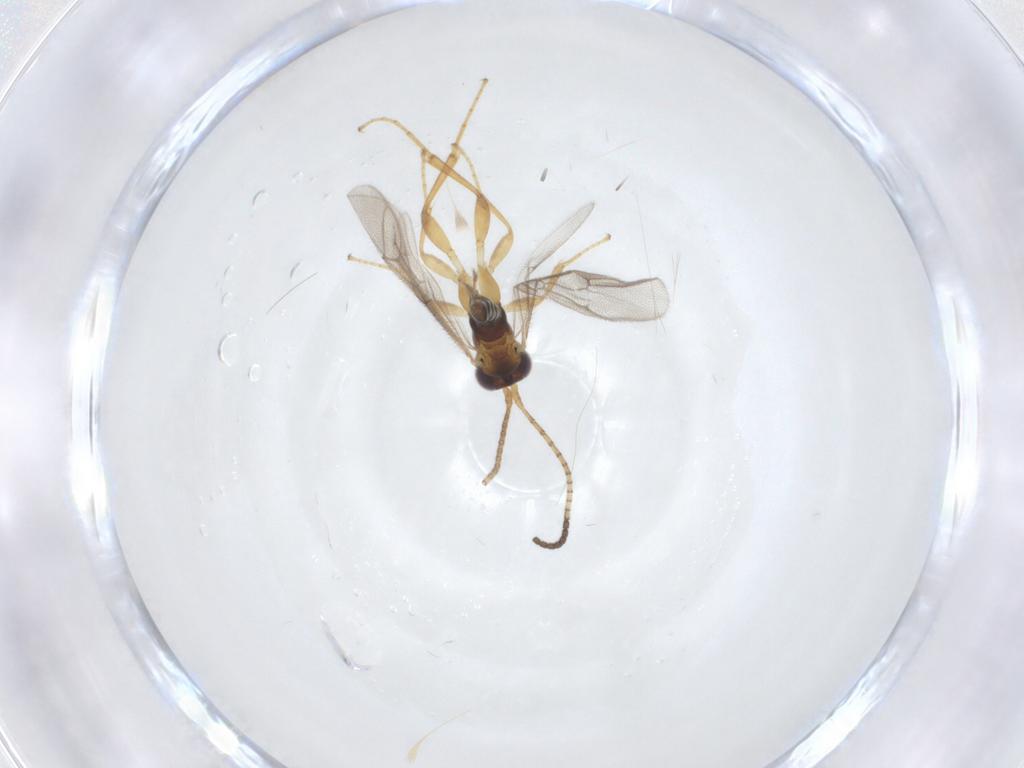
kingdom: Animalia
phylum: Arthropoda
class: Insecta
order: Hymenoptera
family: Ichneumonidae
